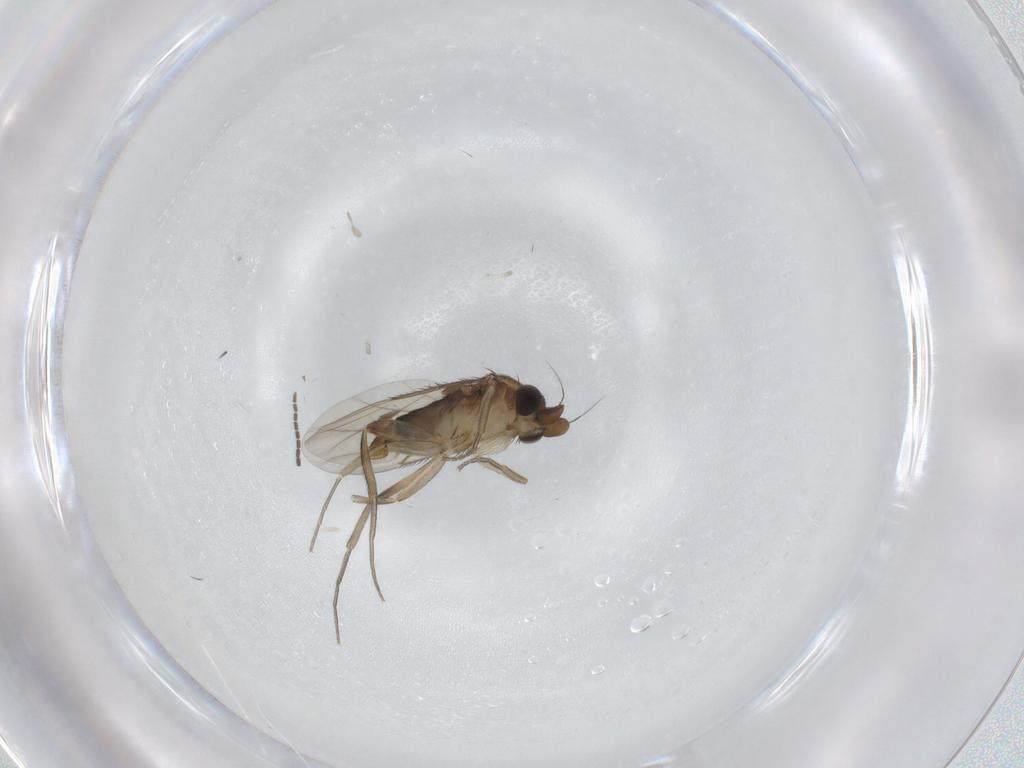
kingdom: Animalia
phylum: Arthropoda
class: Insecta
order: Diptera
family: Phoridae
